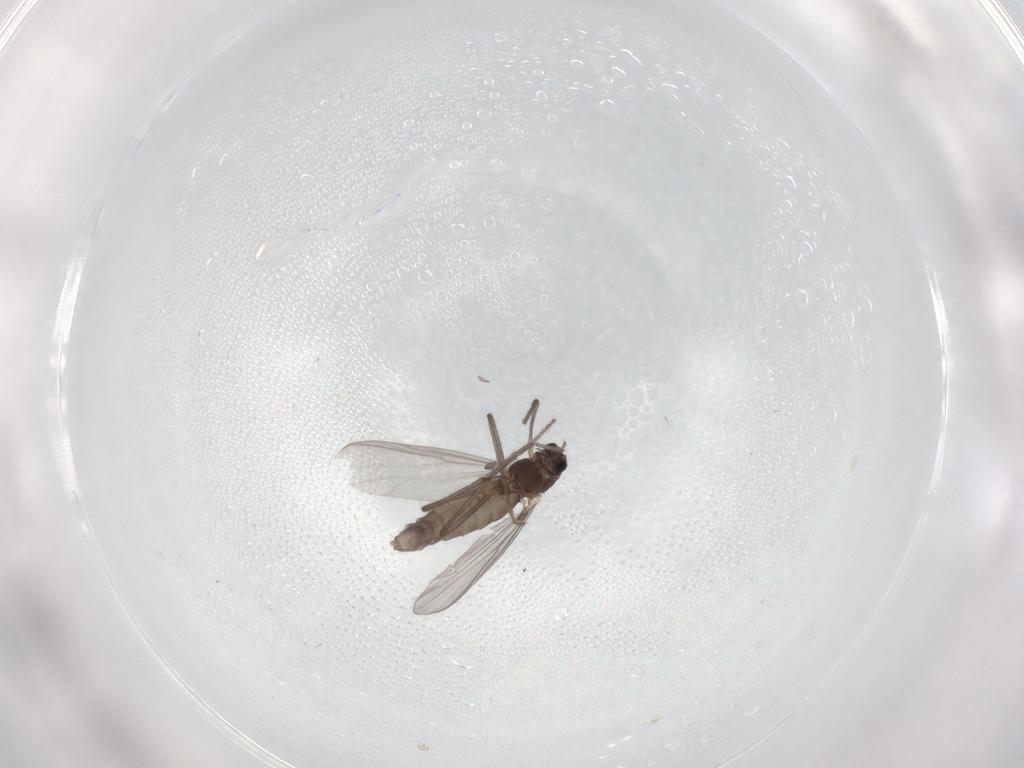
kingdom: Animalia
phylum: Arthropoda
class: Insecta
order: Diptera
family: Chironomidae
